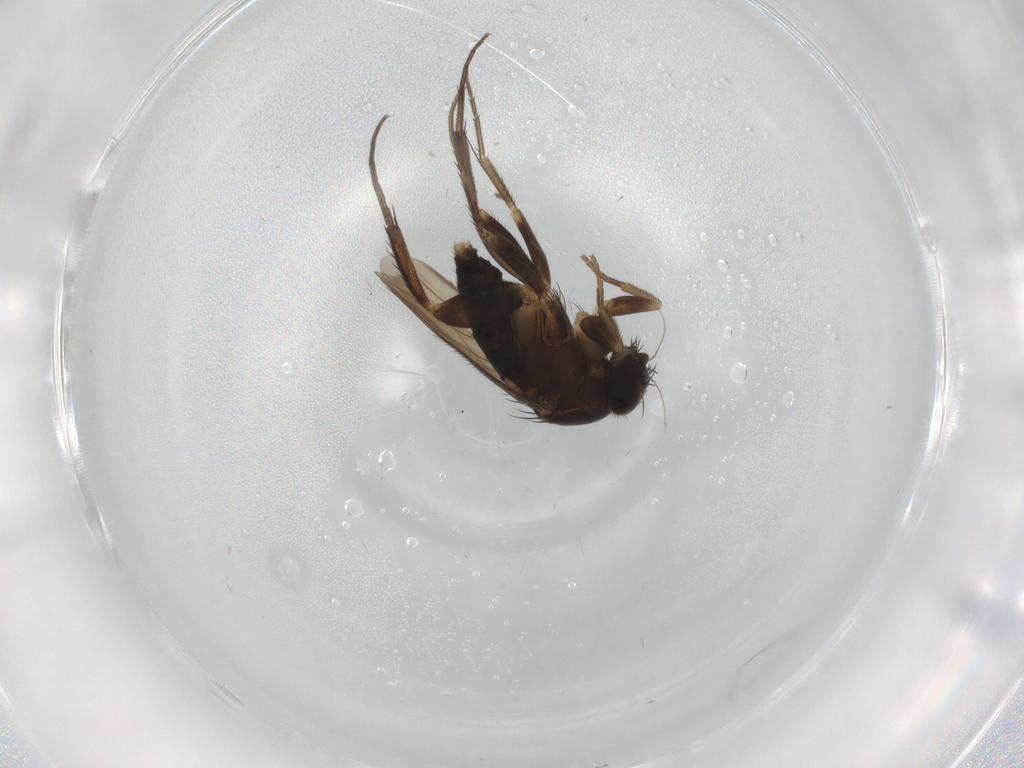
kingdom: Animalia
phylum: Arthropoda
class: Insecta
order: Diptera
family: Phoridae
